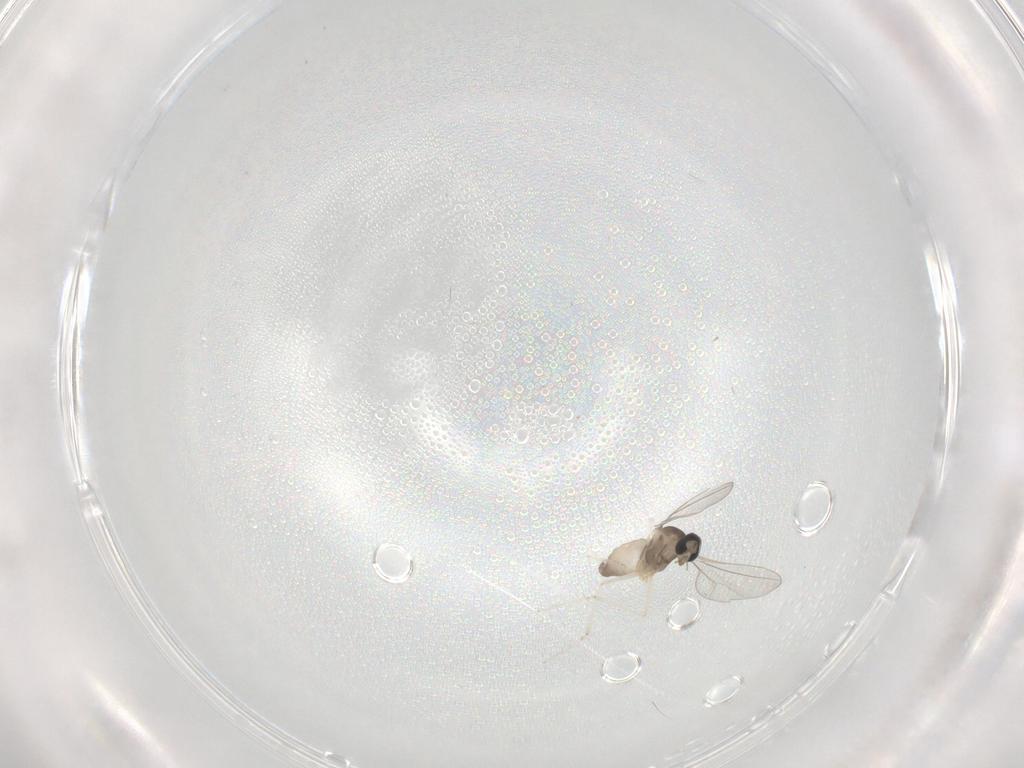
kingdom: Animalia
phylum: Arthropoda
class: Insecta
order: Diptera
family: Cecidomyiidae
